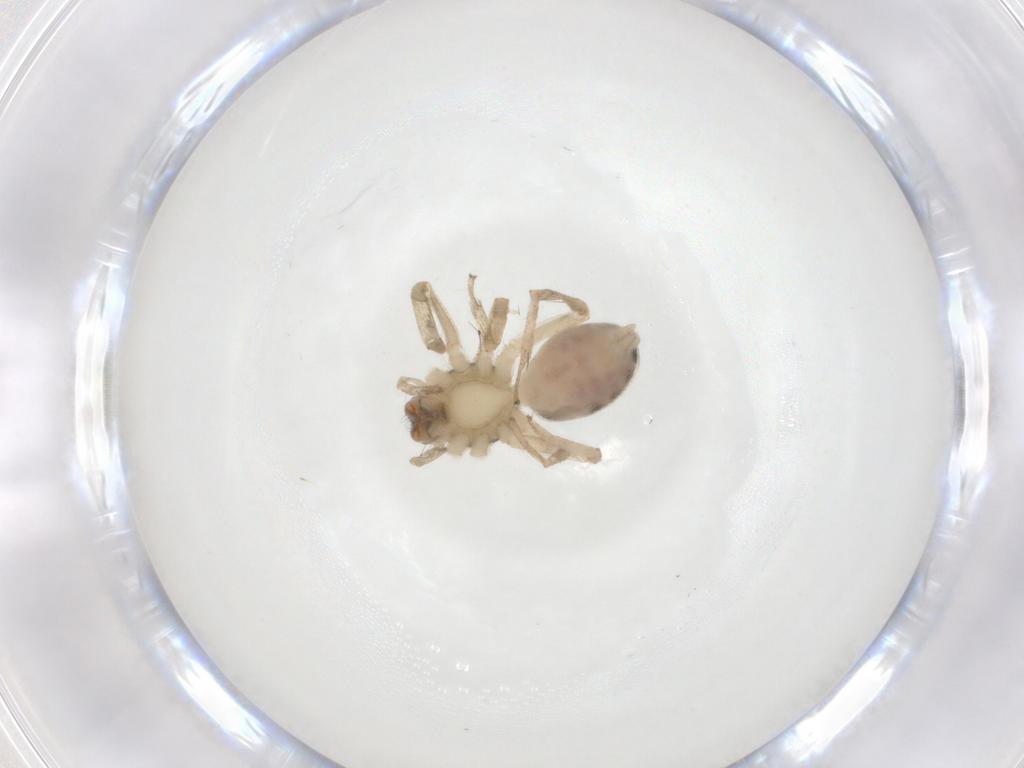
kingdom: Animalia
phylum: Arthropoda
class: Arachnida
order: Araneae
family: Anyphaenidae
